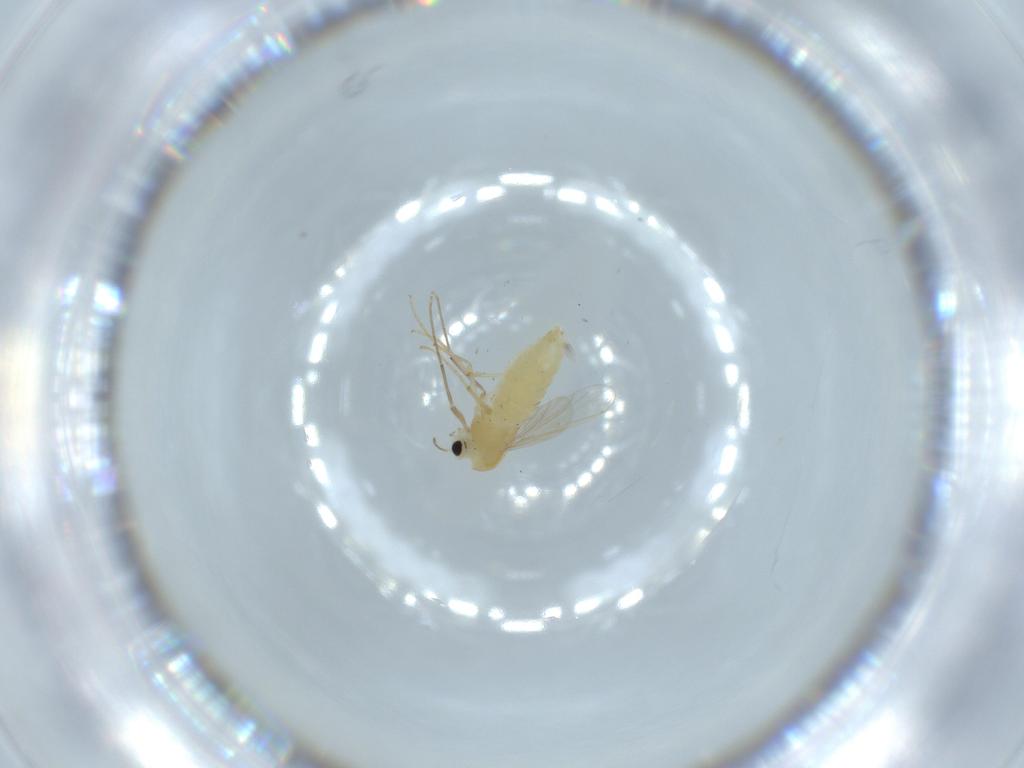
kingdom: Animalia
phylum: Arthropoda
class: Insecta
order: Diptera
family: Chironomidae
